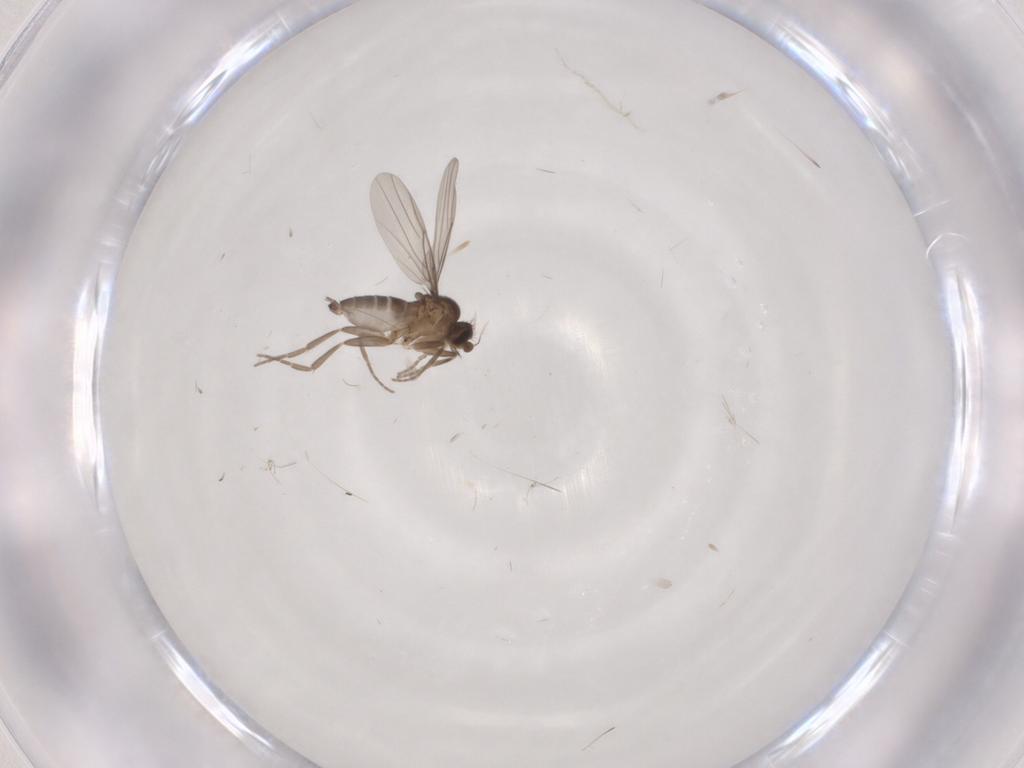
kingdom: Animalia
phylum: Arthropoda
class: Insecta
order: Diptera
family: Phoridae
